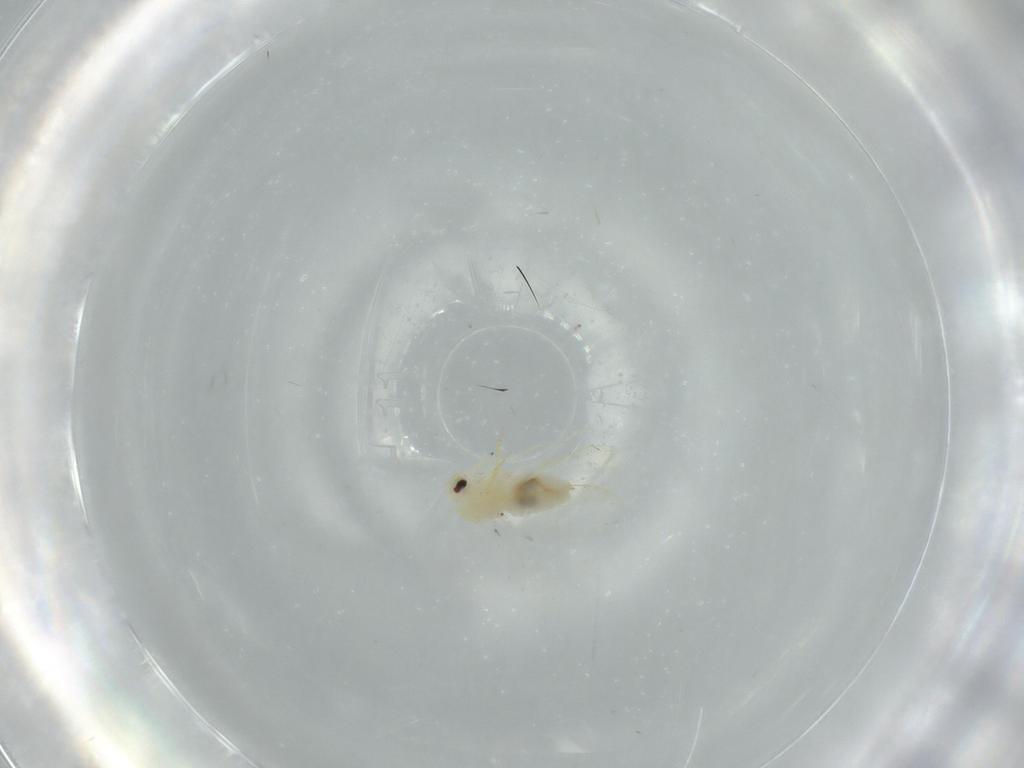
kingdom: Animalia
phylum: Arthropoda
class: Insecta
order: Hemiptera
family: Aleyrodidae
